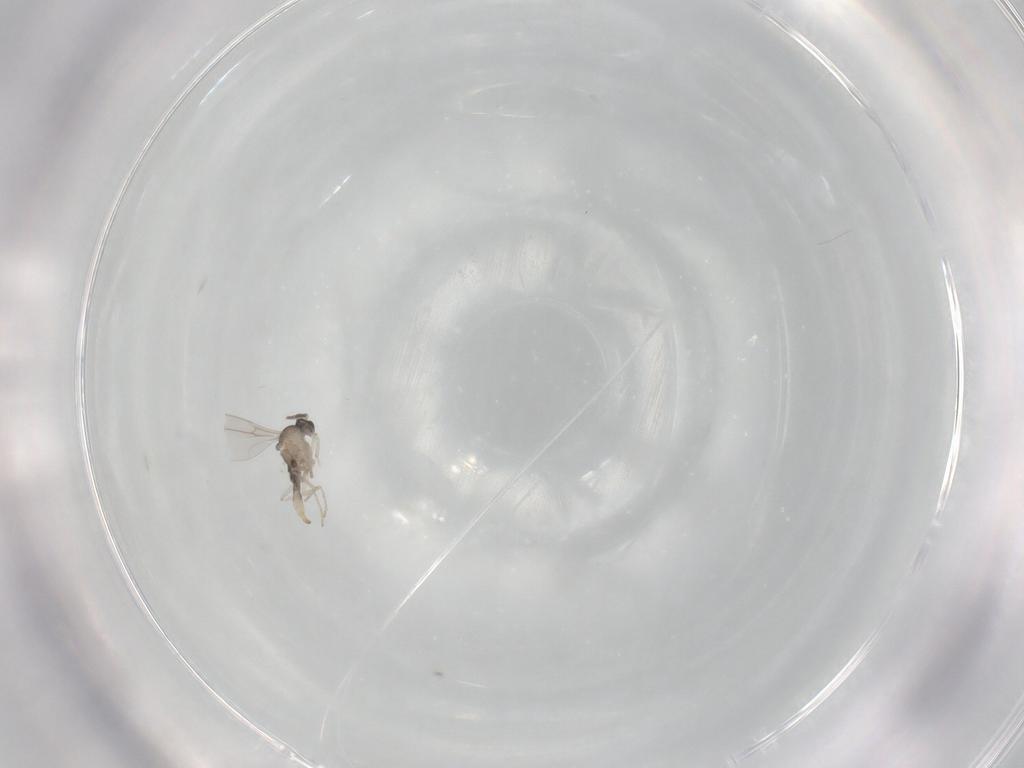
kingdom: Animalia
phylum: Arthropoda
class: Insecta
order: Diptera
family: Cecidomyiidae
